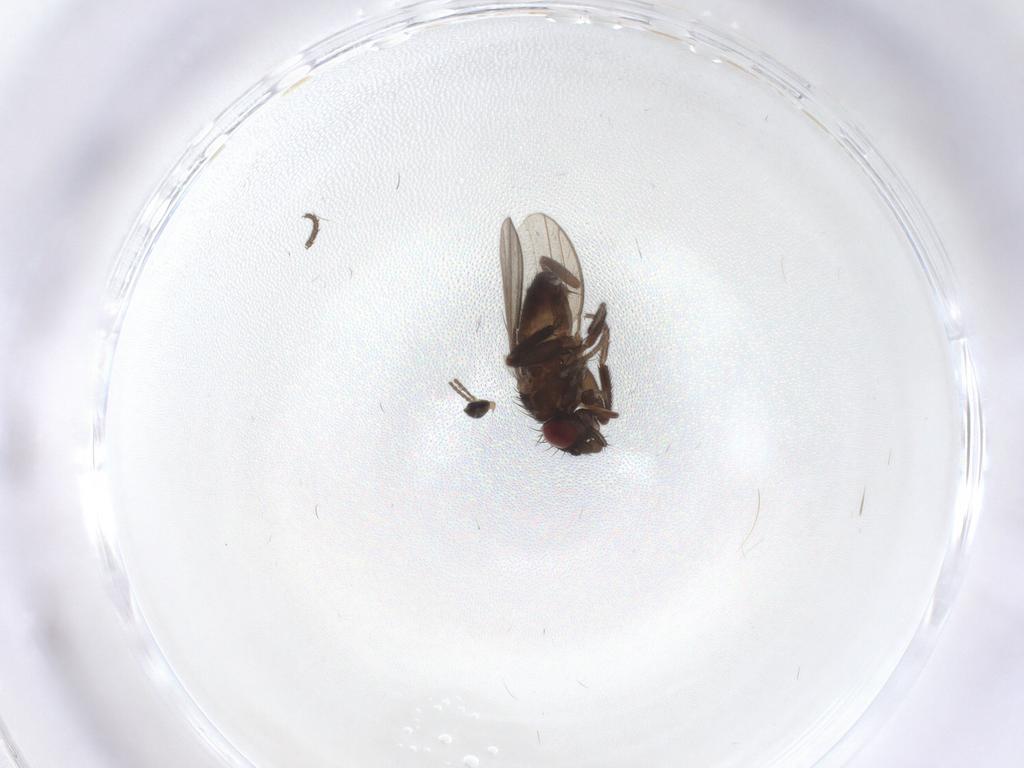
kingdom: Animalia
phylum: Arthropoda
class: Insecta
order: Diptera
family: Milichiidae
